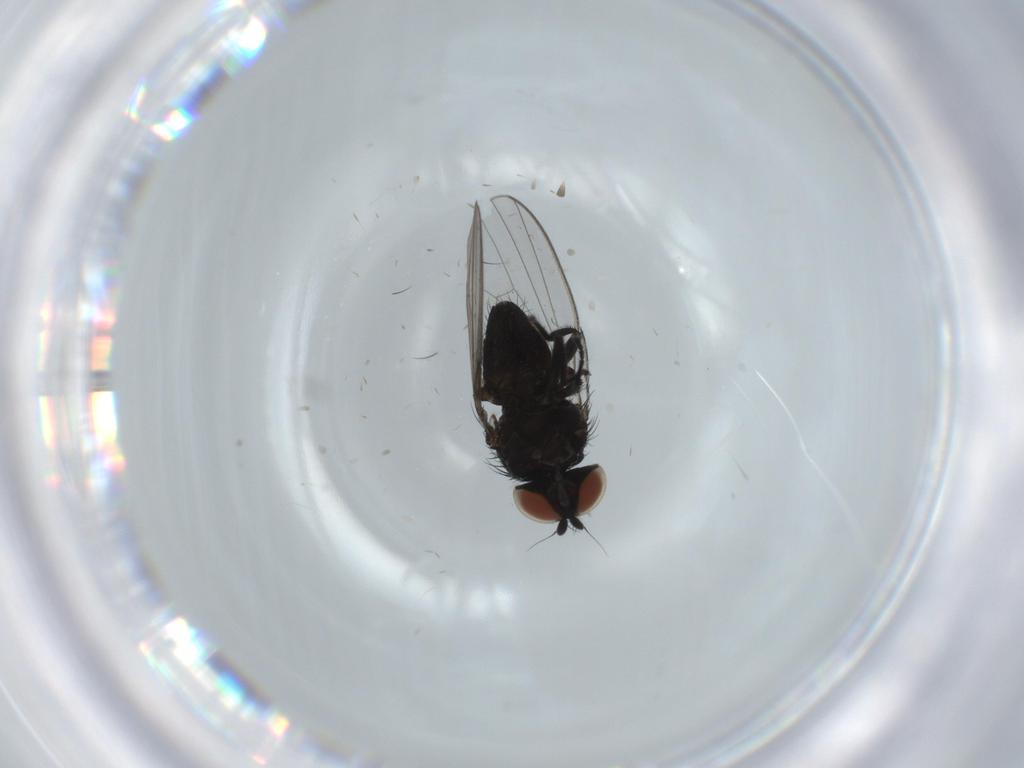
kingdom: Animalia
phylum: Arthropoda
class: Insecta
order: Diptera
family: Milichiidae
